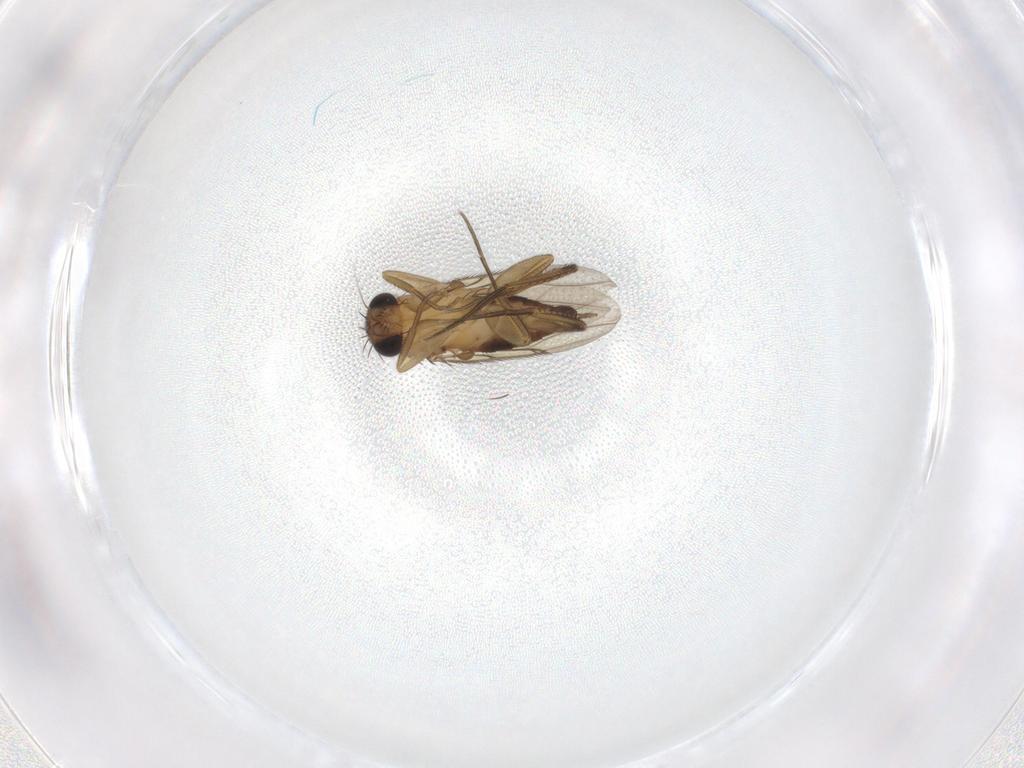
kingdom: Animalia
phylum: Arthropoda
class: Insecta
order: Diptera
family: Phoridae
